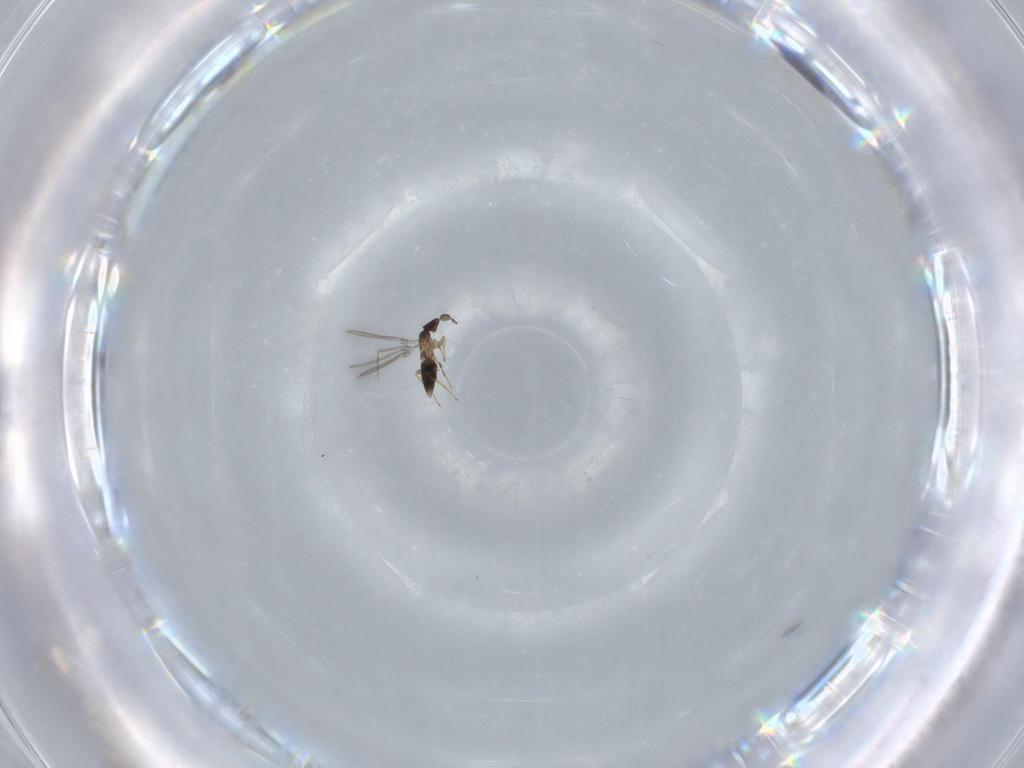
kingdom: Animalia
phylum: Arthropoda
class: Insecta
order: Hymenoptera
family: Mymaridae
